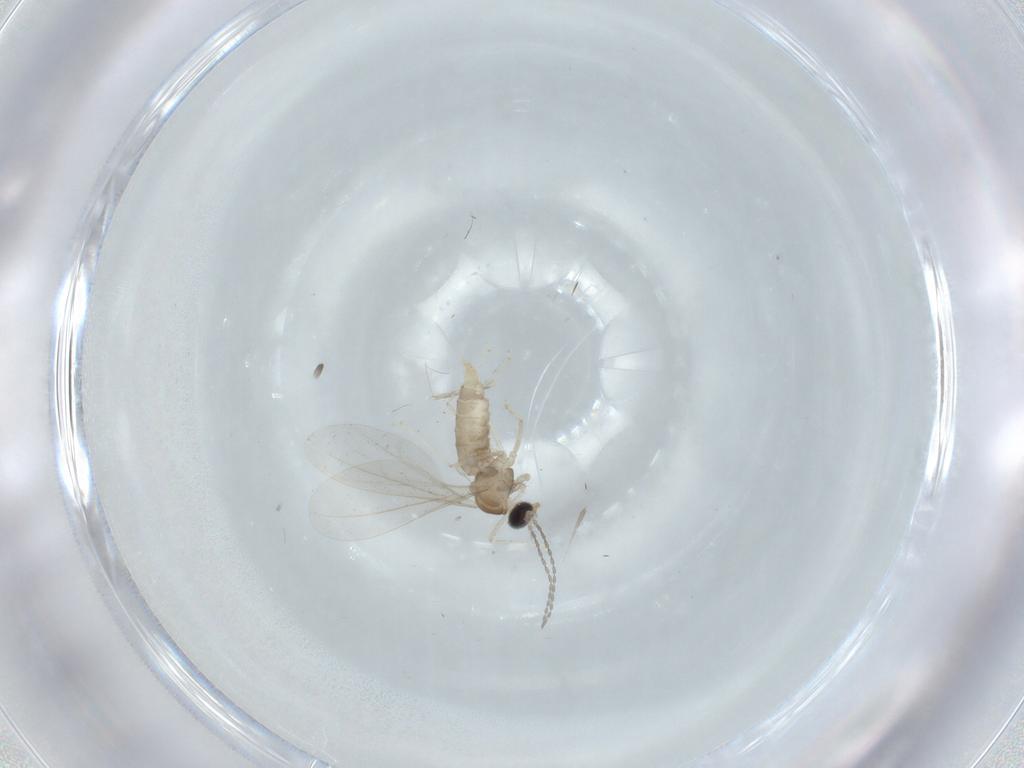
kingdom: Animalia
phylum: Arthropoda
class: Insecta
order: Diptera
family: Cecidomyiidae
